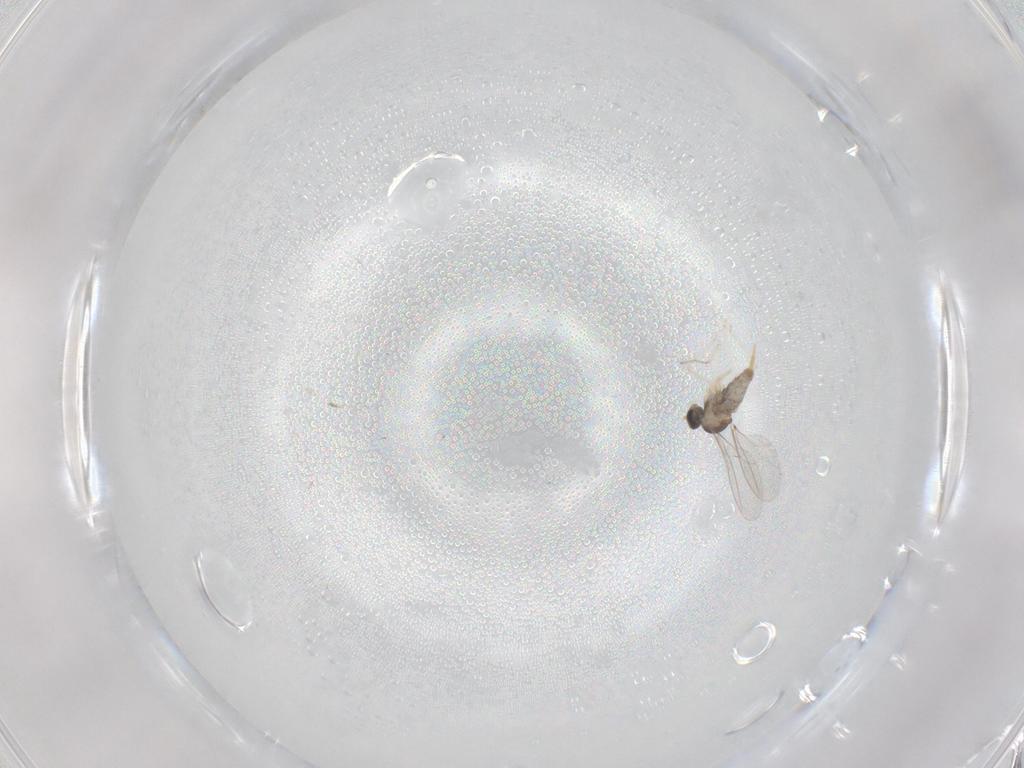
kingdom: Animalia
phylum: Arthropoda
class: Insecta
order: Diptera
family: Cecidomyiidae
